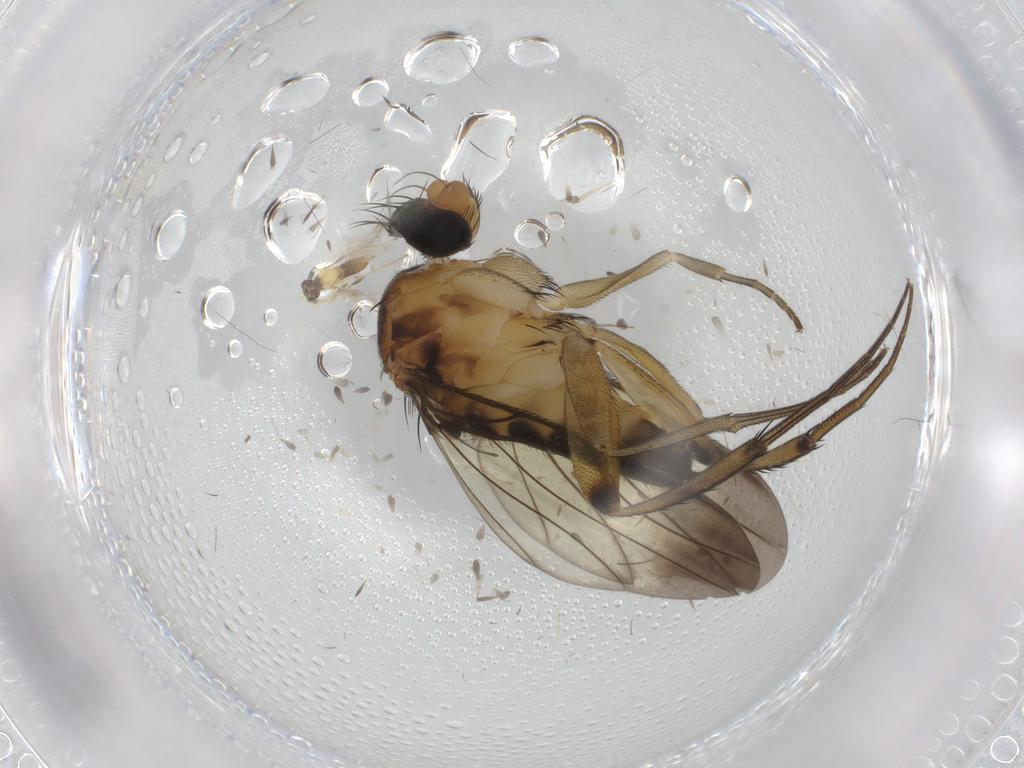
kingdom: Animalia
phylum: Arthropoda
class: Insecta
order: Diptera
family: Phoridae
